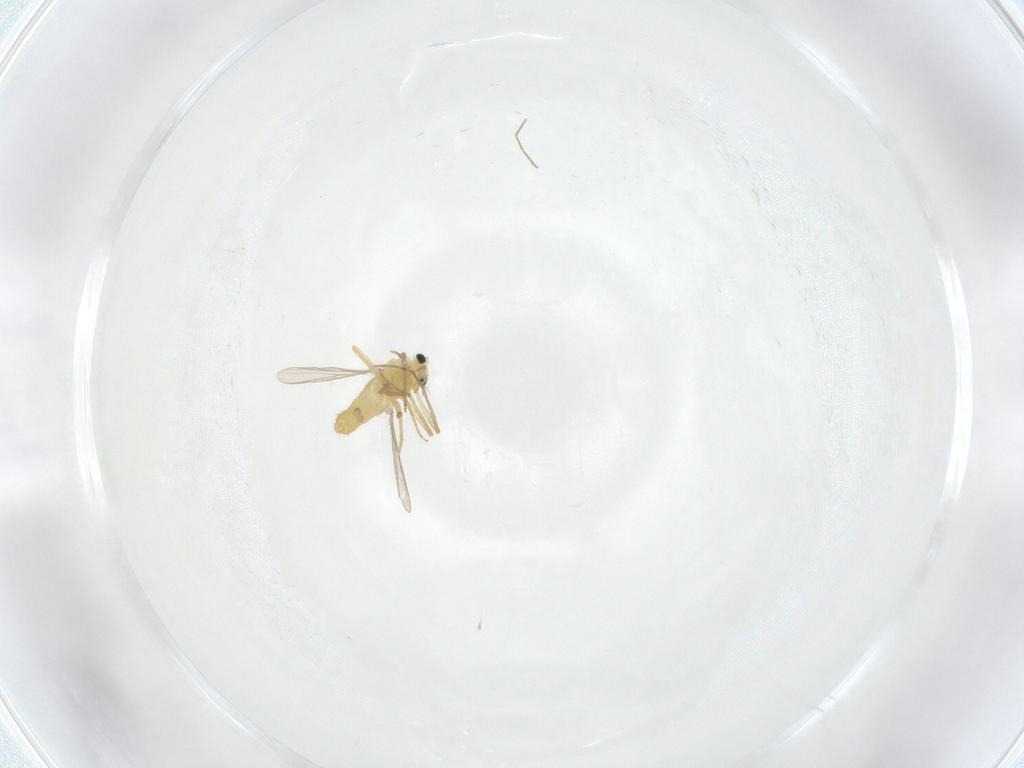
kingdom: Animalia
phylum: Arthropoda
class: Insecta
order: Diptera
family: Chironomidae
